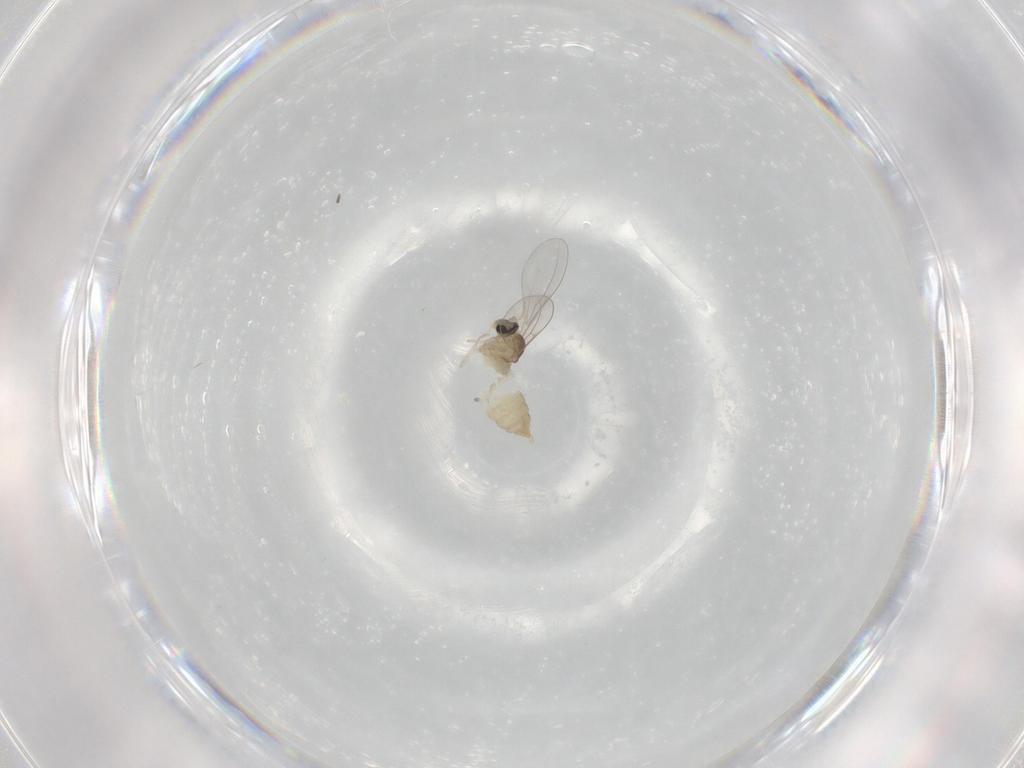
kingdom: Animalia
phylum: Arthropoda
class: Insecta
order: Diptera
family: Cecidomyiidae
